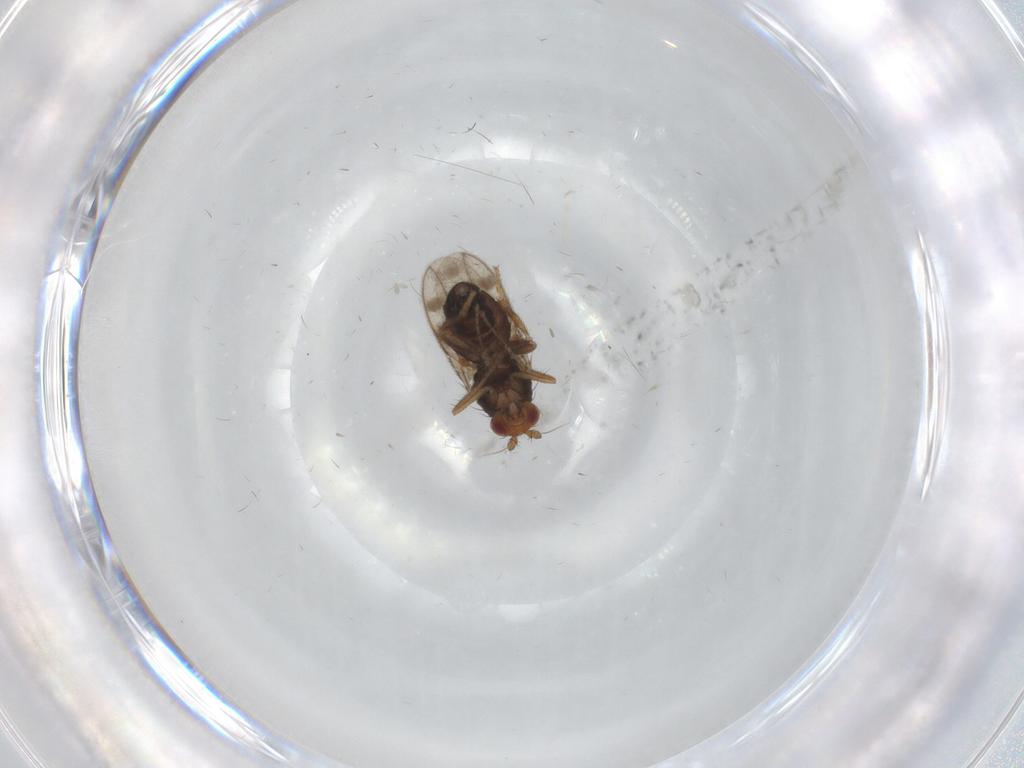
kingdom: Animalia
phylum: Arthropoda
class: Insecta
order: Diptera
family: Sphaeroceridae
